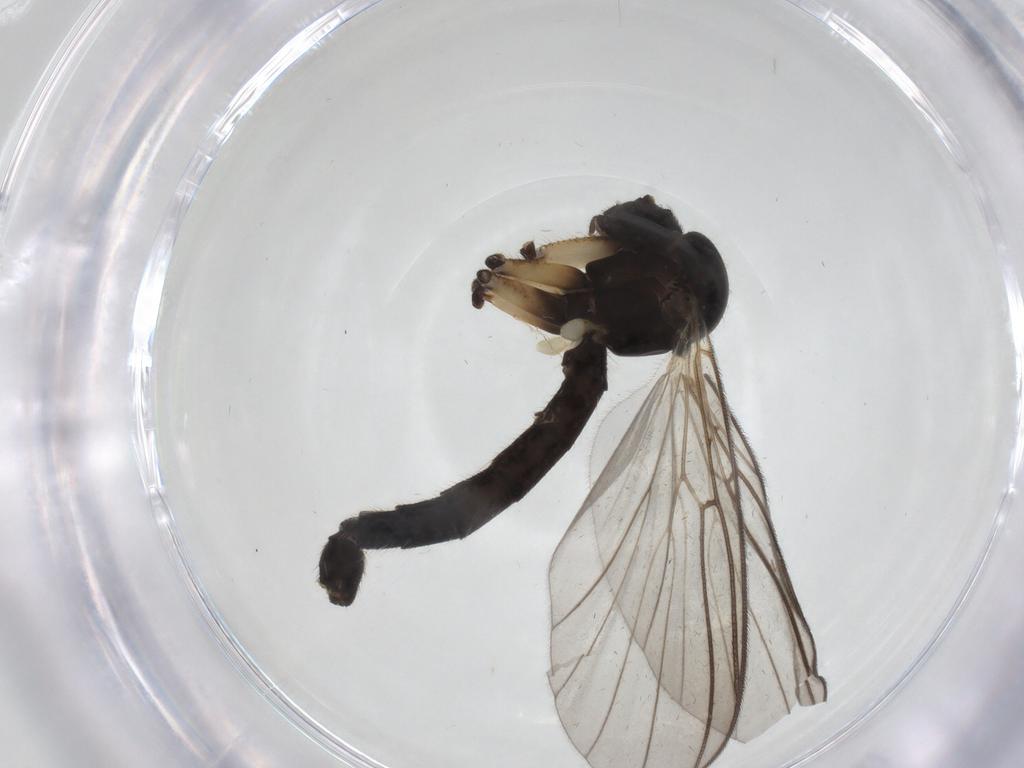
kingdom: Animalia
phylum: Arthropoda
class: Insecta
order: Diptera
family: Mycetophilidae
